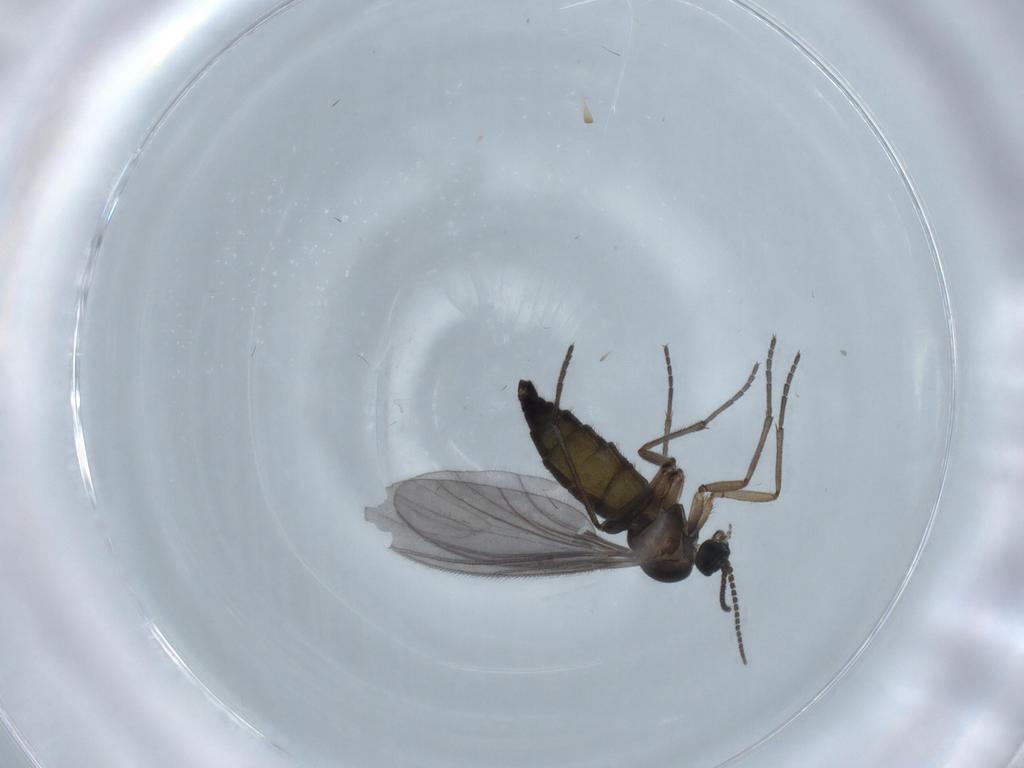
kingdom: Animalia
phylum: Arthropoda
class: Insecta
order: Diptera
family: Sciaridae
